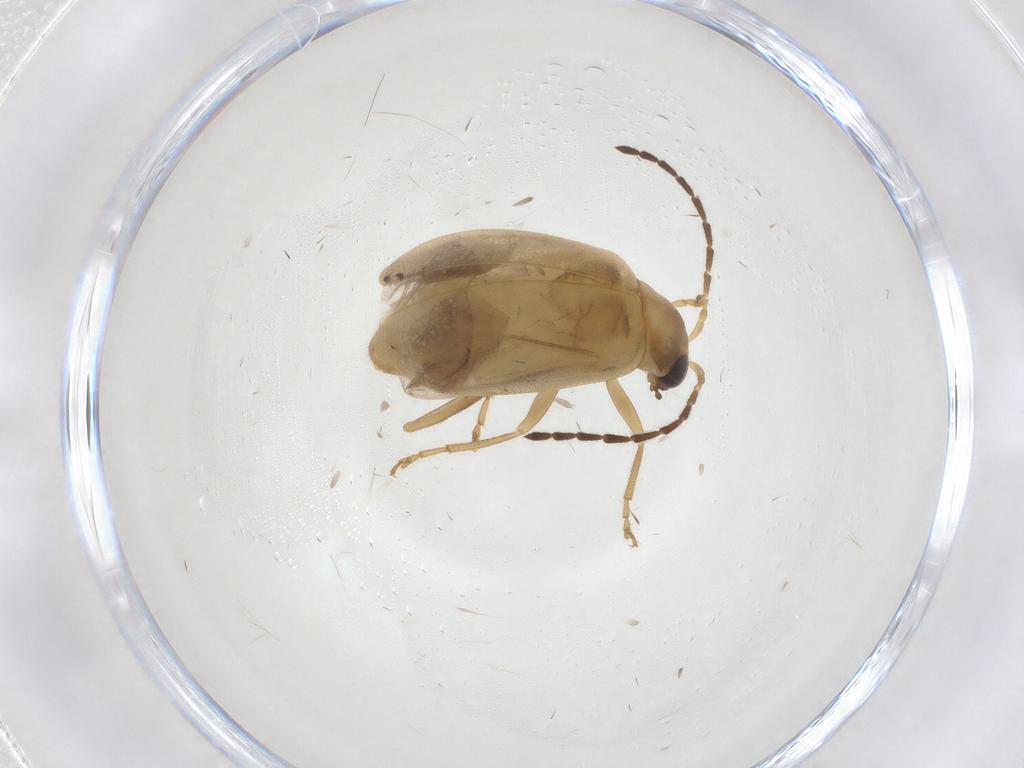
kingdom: Animalia
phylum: Arthropoda
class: Insecta
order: Coleoptera
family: Chrysomelidae
